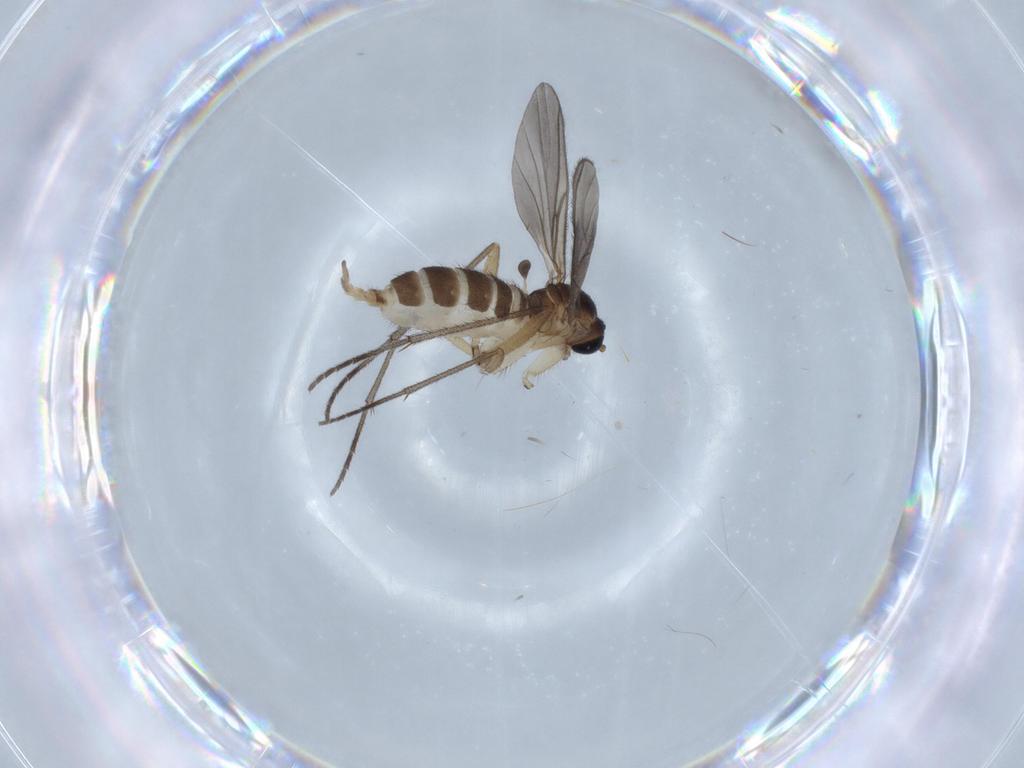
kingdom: Animalia
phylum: Arthropoda
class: Insecta
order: Diptera
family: Sciaridae
